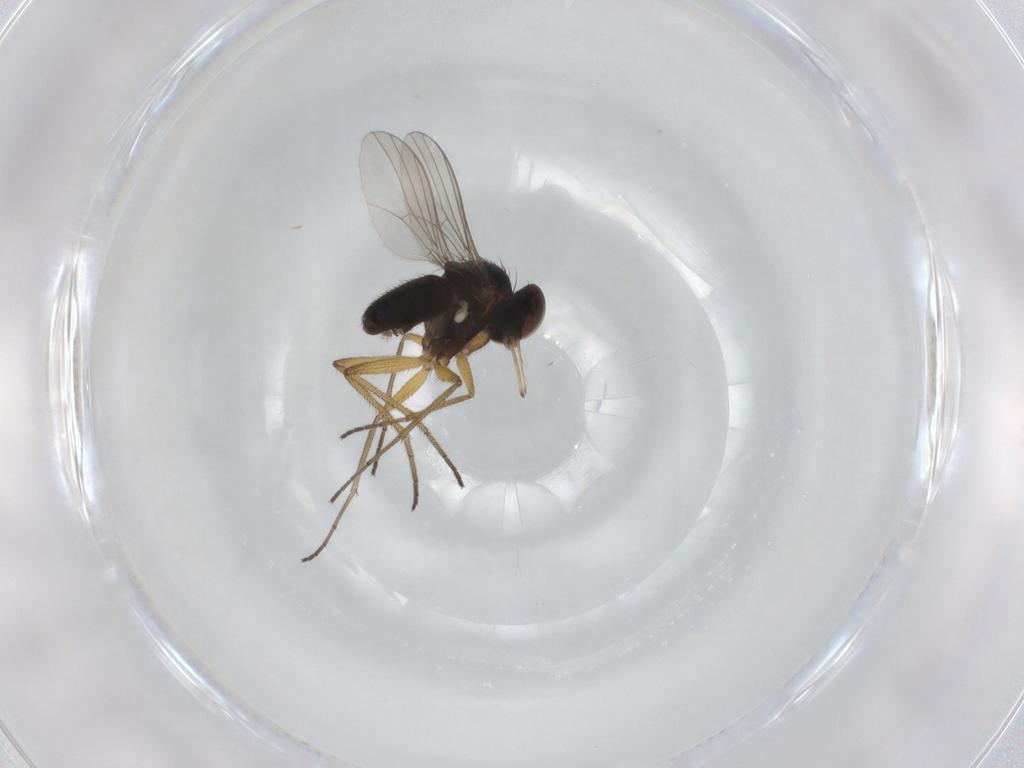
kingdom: Animalia
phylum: Arthropoda
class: Insecta
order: Diptera
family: Dolichopodidae
